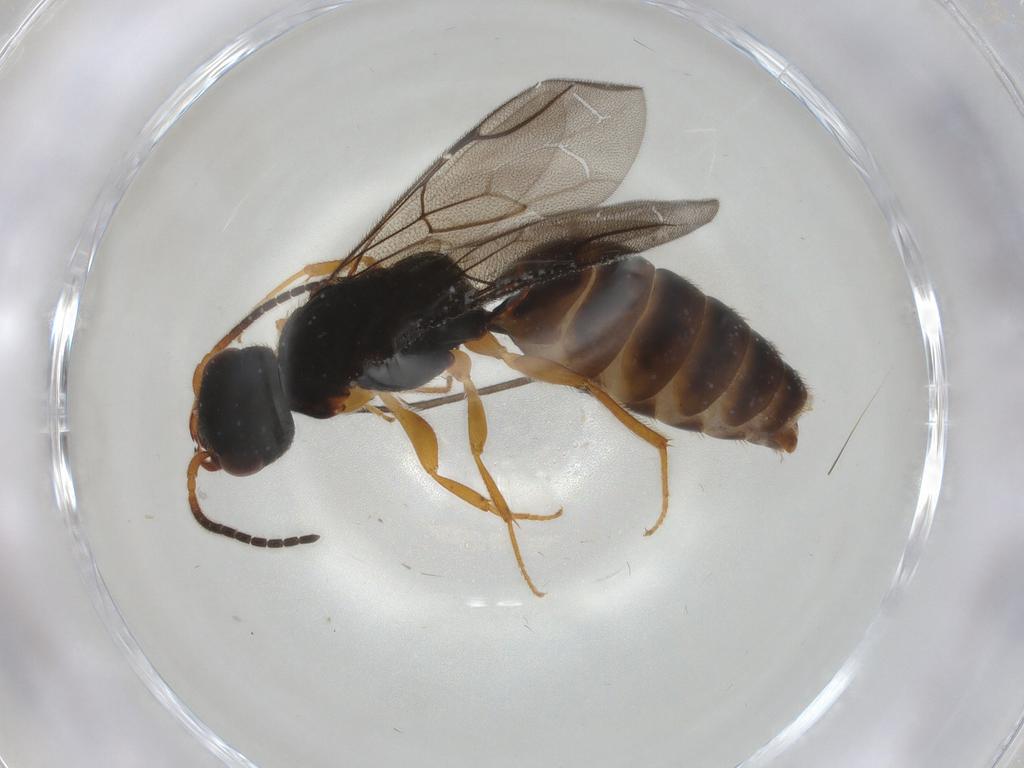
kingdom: Animalia
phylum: Arthropoda
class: Insecta
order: Hymenoptera
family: Bethylidae
